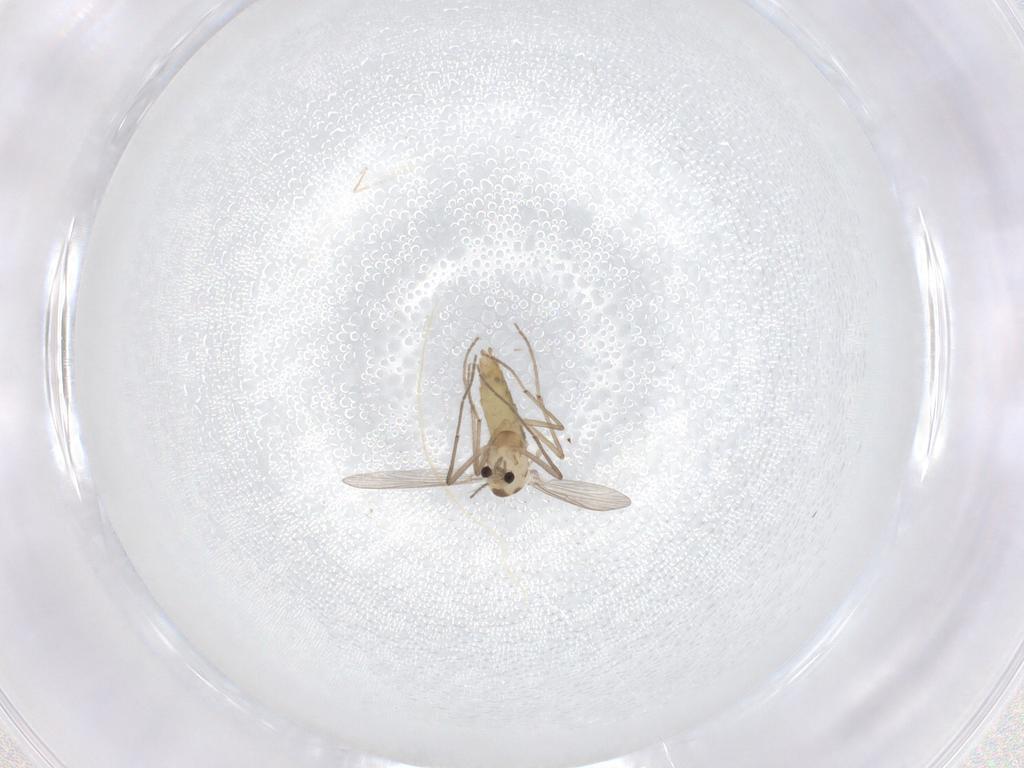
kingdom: Animalia
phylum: Arthropoda
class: Insecta
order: Diptera
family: Chironomidae
